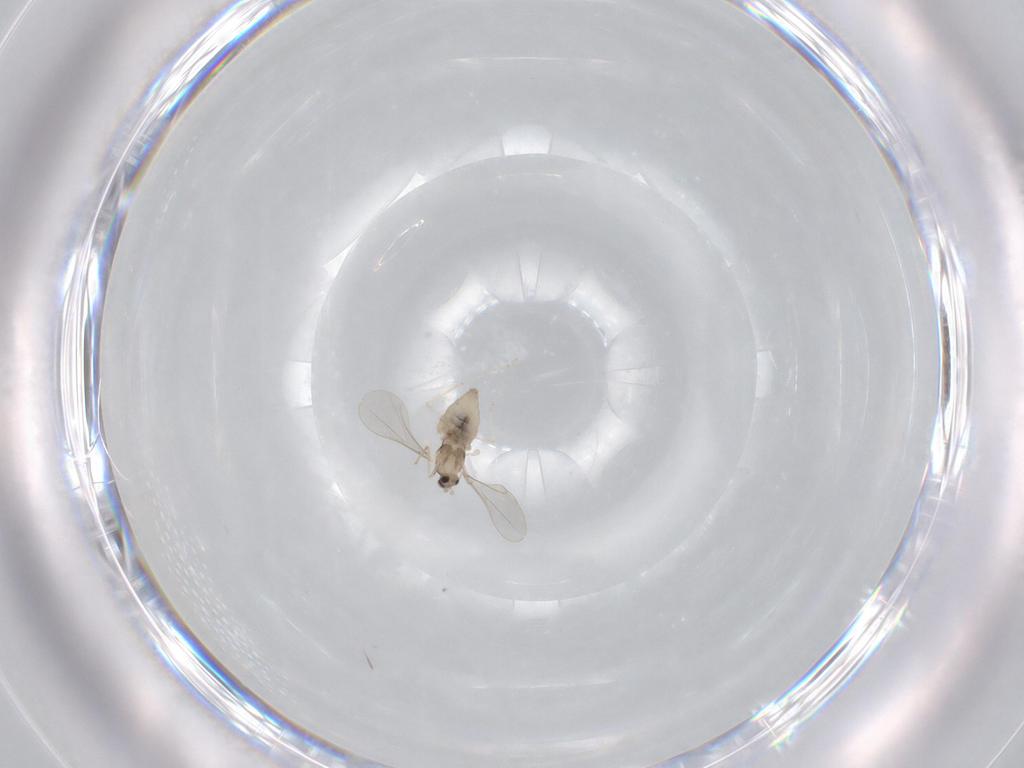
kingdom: Animalia
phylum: Arthropoda
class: Insecta
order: Diptera
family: Cecidomyiidae
